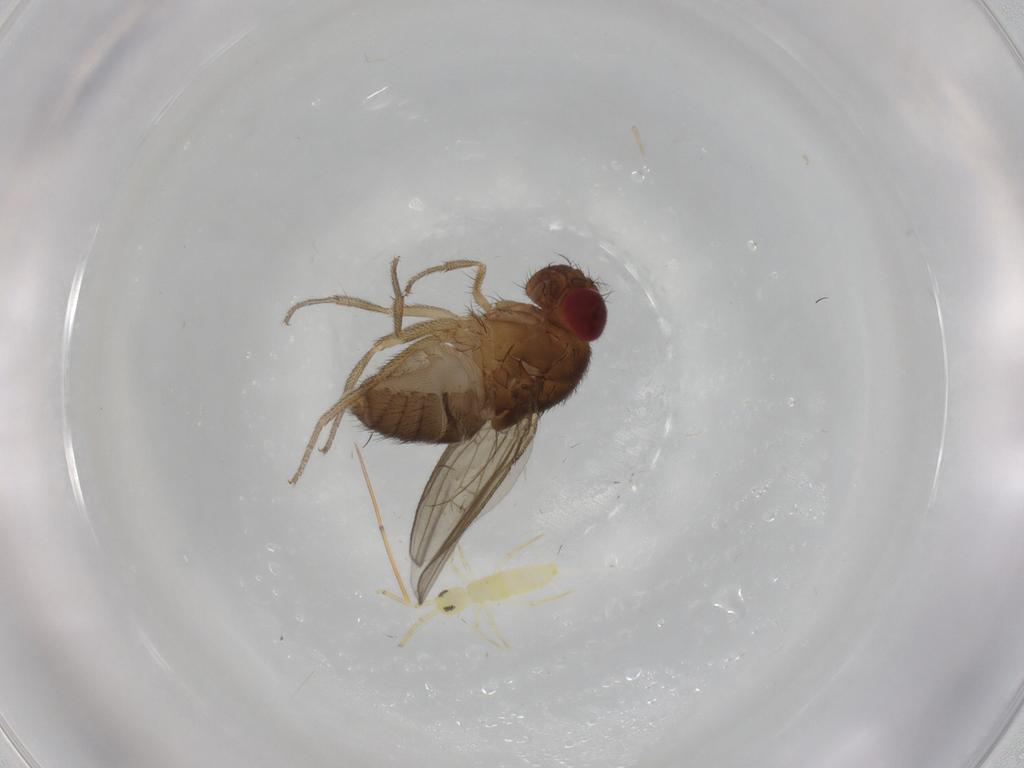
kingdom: Animalia
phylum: Arthropoda
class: Insecta
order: Diptera
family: Drosophilidae
